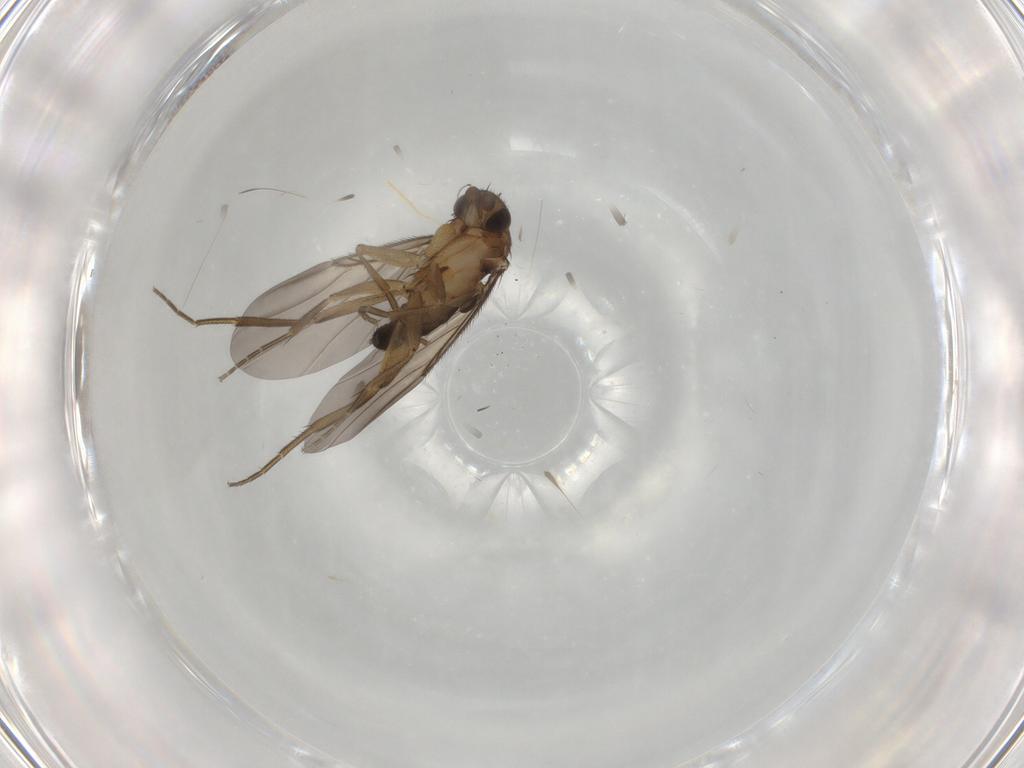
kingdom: Animalia
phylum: Arthropoda
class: Insecta
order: Diptera
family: Phoridae
